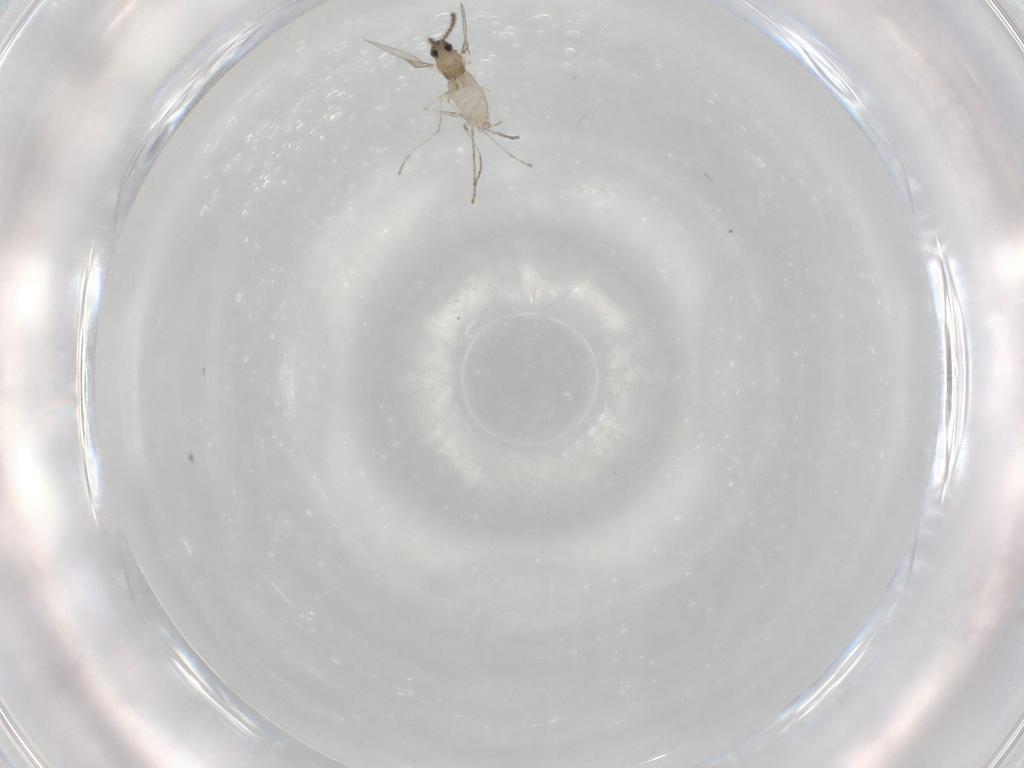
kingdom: Animalia
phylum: Arthropoda
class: Insecta
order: Diptera
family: Cecidomyiidae
